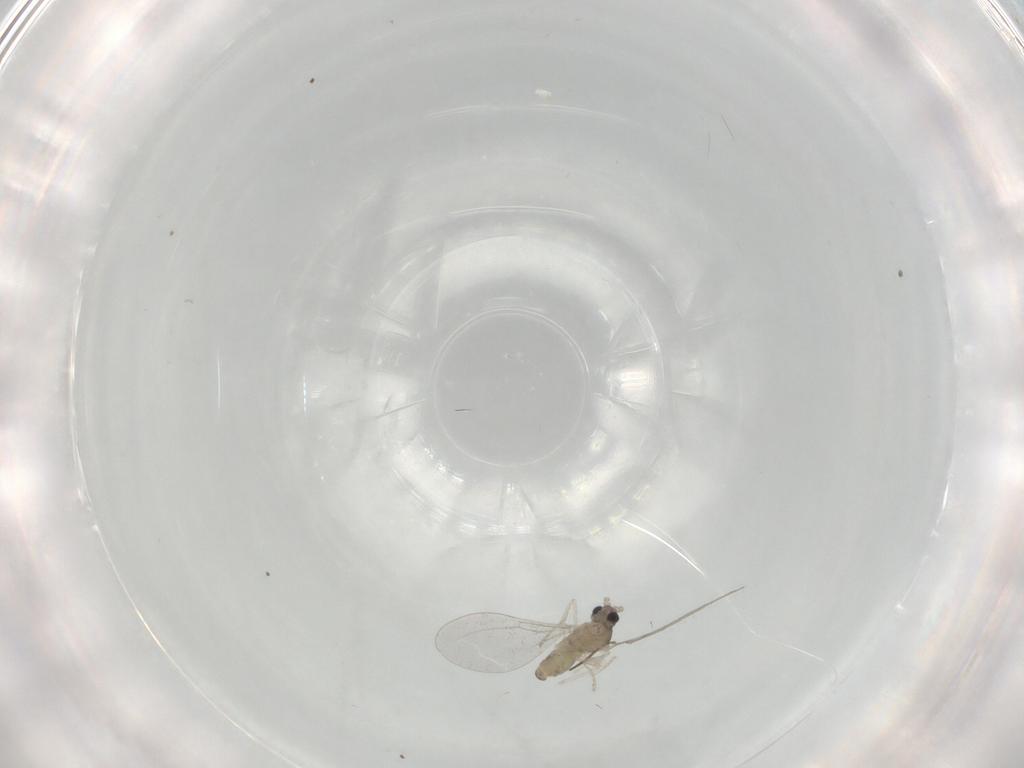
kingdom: Animalia
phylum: Arthropoda
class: Insecta
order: Diptera
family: Cecidomyiidae
